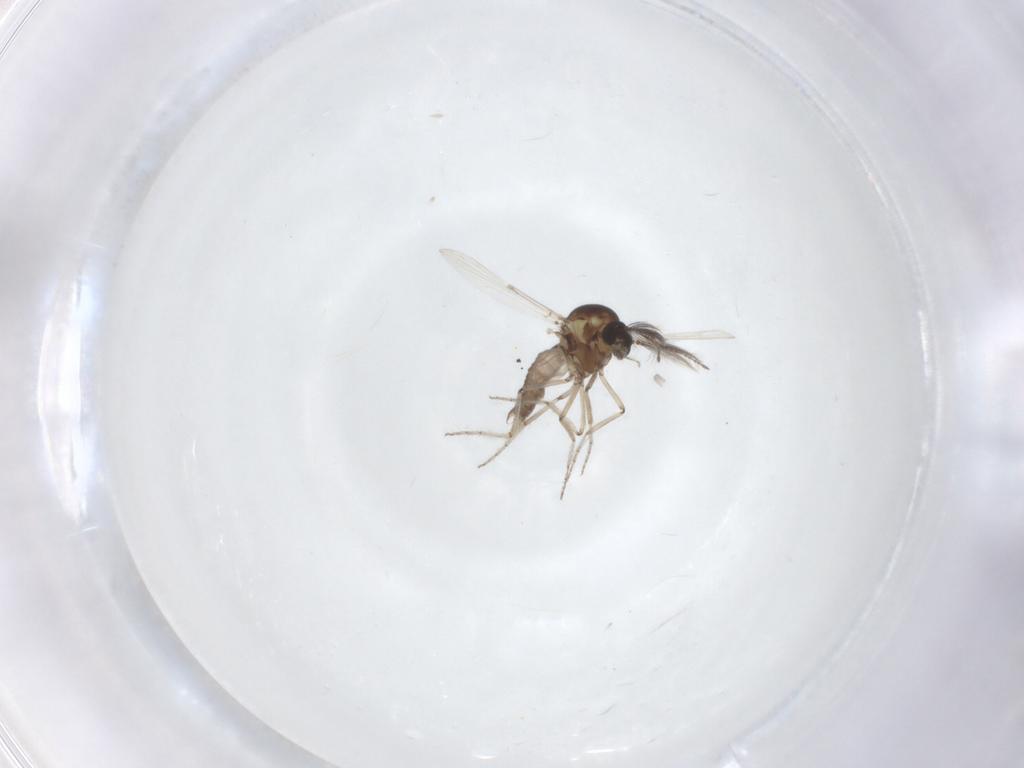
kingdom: Animalia
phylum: Arthropoda
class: Insecta
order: Diptera
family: Ceratopogonidae
